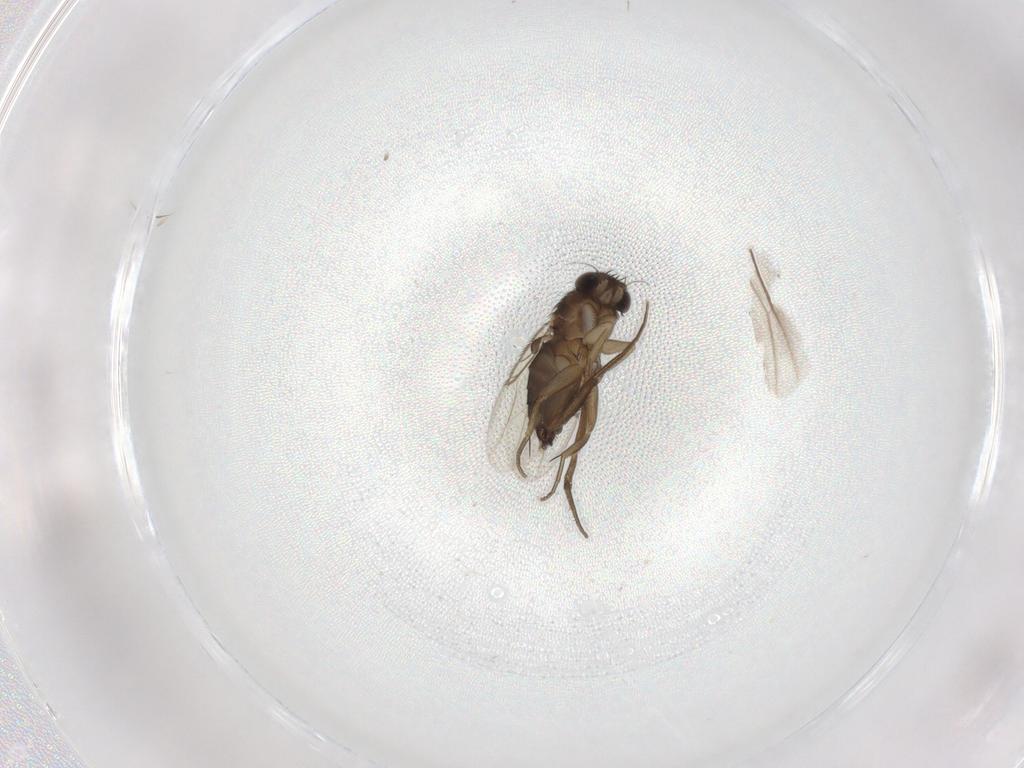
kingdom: Animalia
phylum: Arthropoda
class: Insecta
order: Diptera
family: Phoridae
